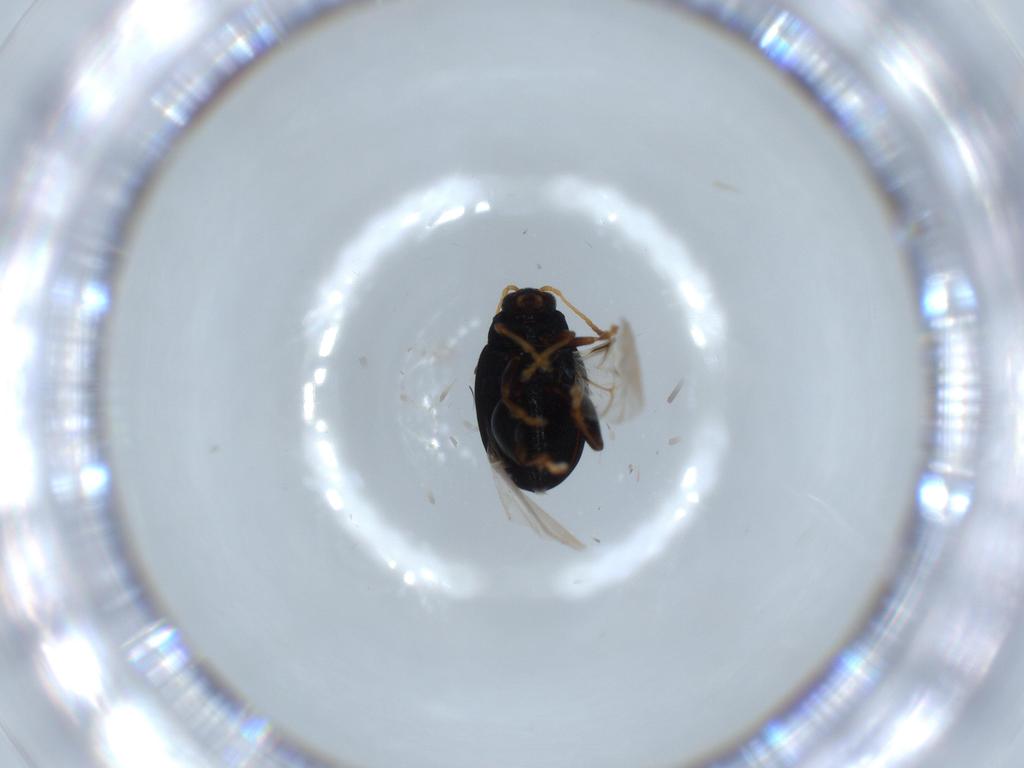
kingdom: Animalia
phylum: Arthropoda
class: Insecta
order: Coleoptera
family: Chrysomelidae
